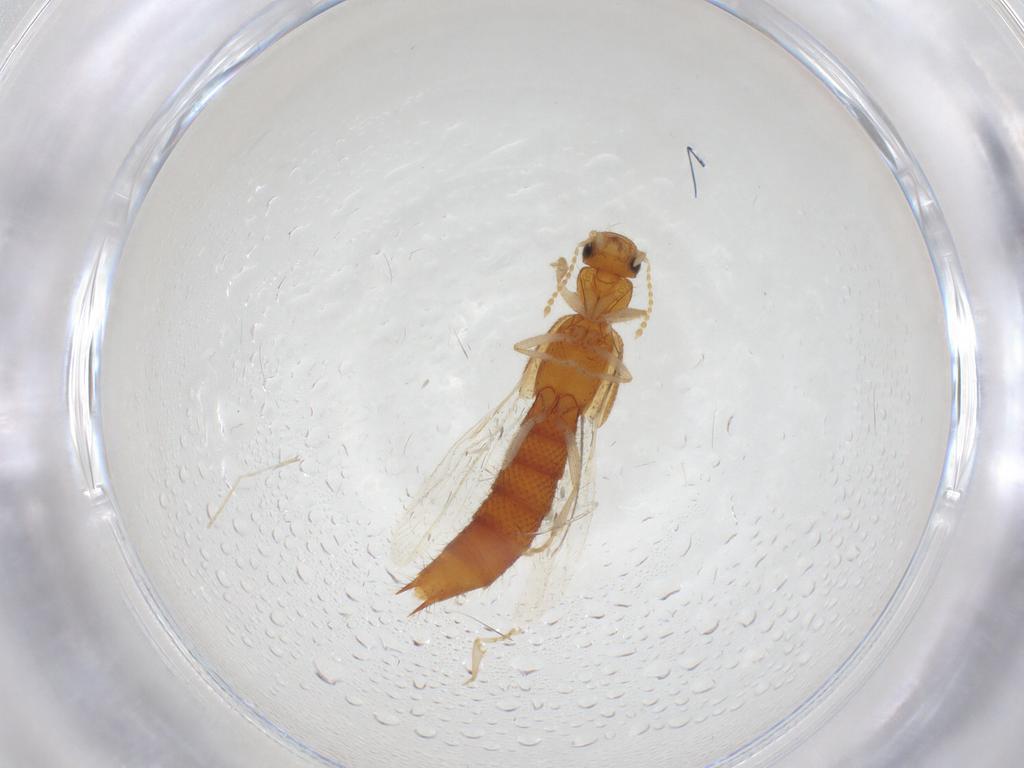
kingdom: Animalia
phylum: Arthropoda
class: Insecta
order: Coleoptera
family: Staphylinidae
